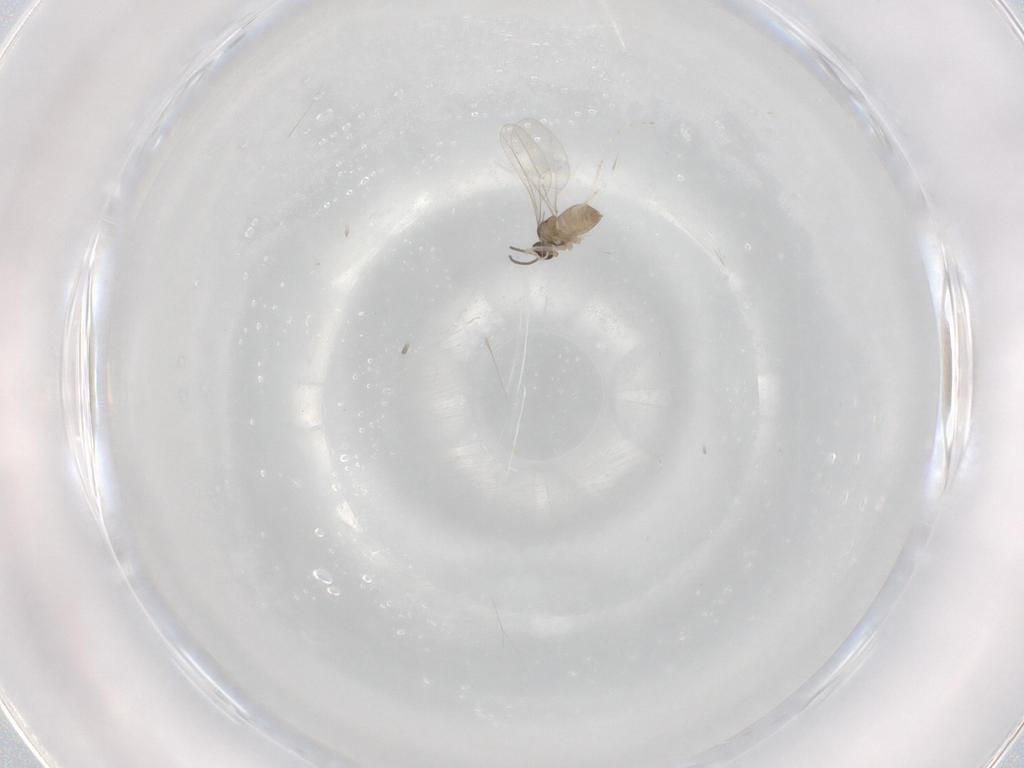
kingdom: Animalia
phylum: Arthropoda
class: Insecta
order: Diptera
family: Cecidomyiidae
